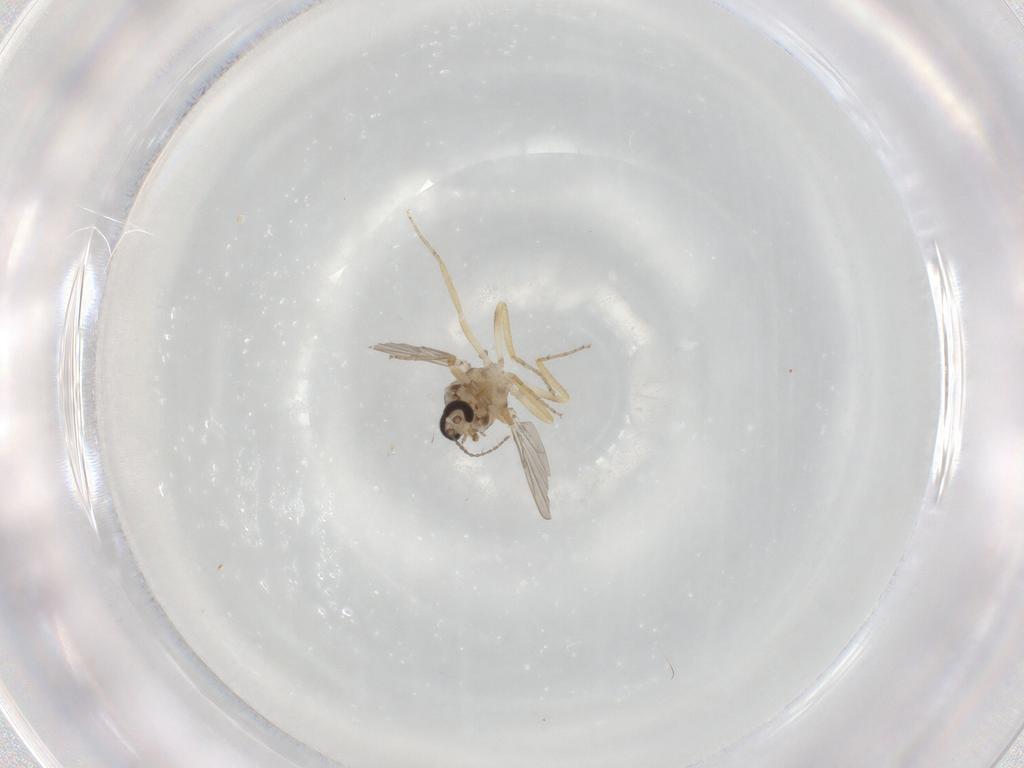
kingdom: Animalia
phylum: Arthropoda
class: Insecta
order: Diptera
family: Ceratopogonidae
